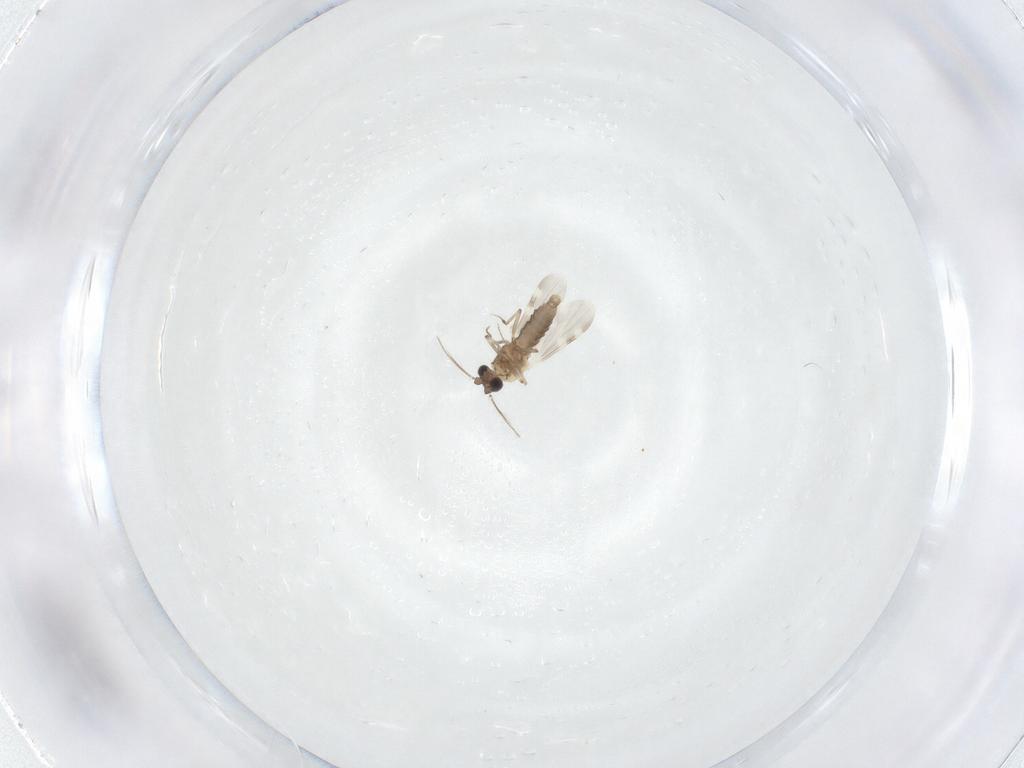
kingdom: Animalia
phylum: Arthropoda
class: Insecta
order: Diptera
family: Ceratopogonidae
